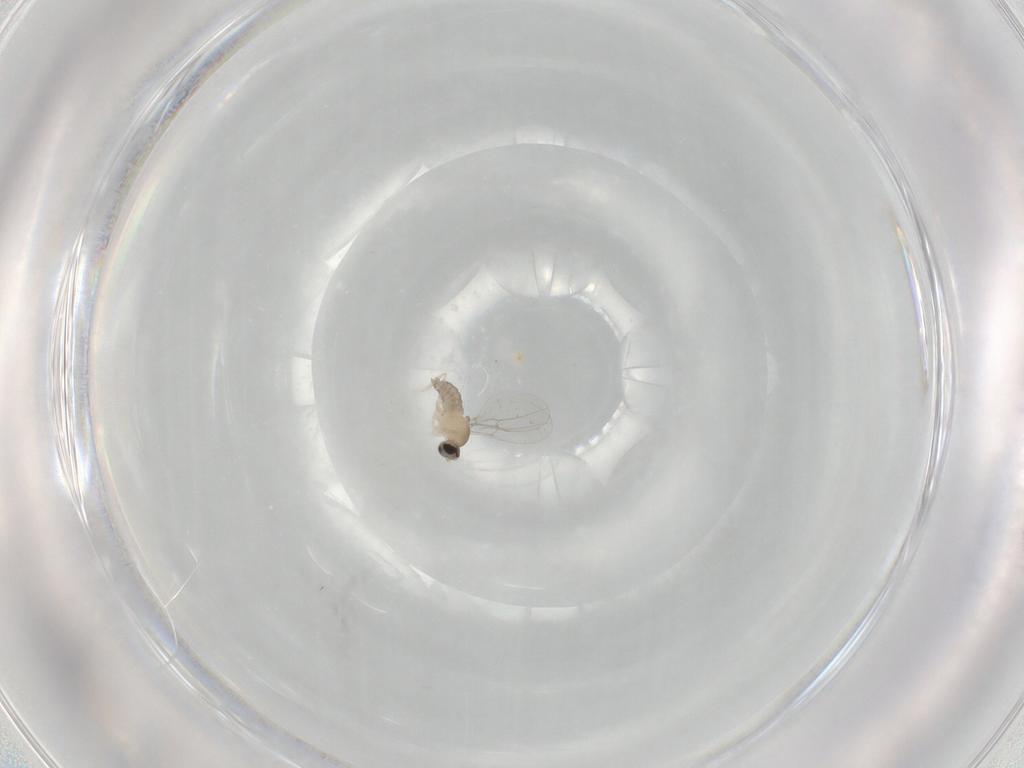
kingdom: Animalia
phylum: Arthropoda
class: Insecta
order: Diptera
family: Cecidomyiidae
